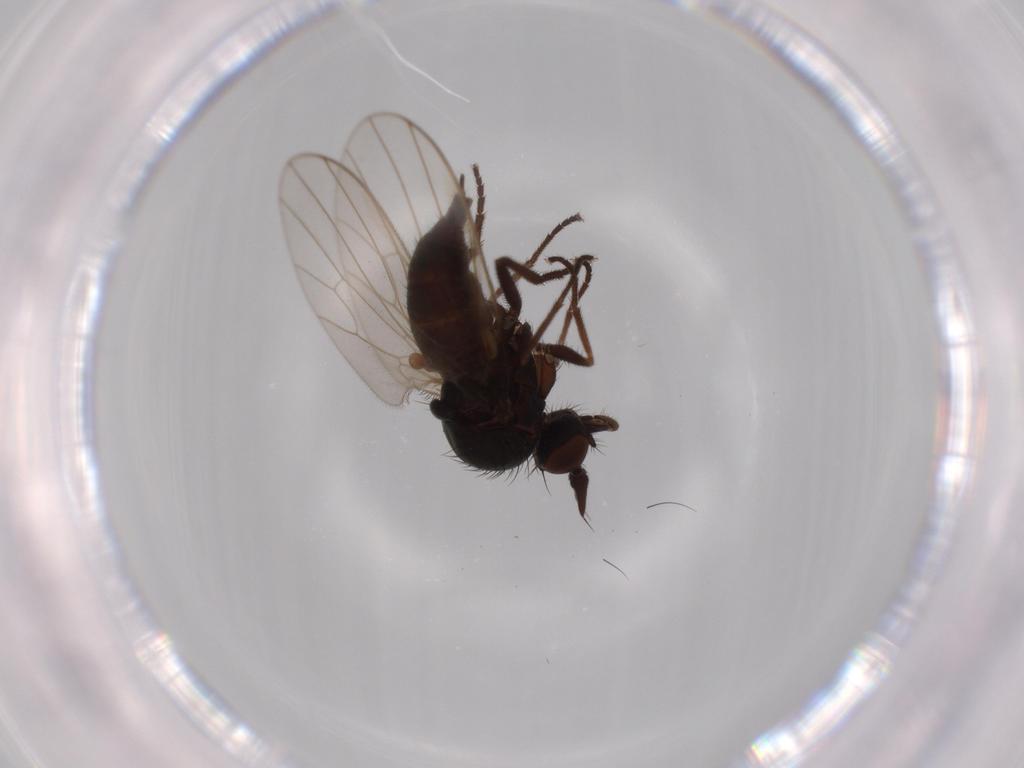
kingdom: Animalia
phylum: Arthropoda
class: Insecta
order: Diptera
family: Dolichopodidae
